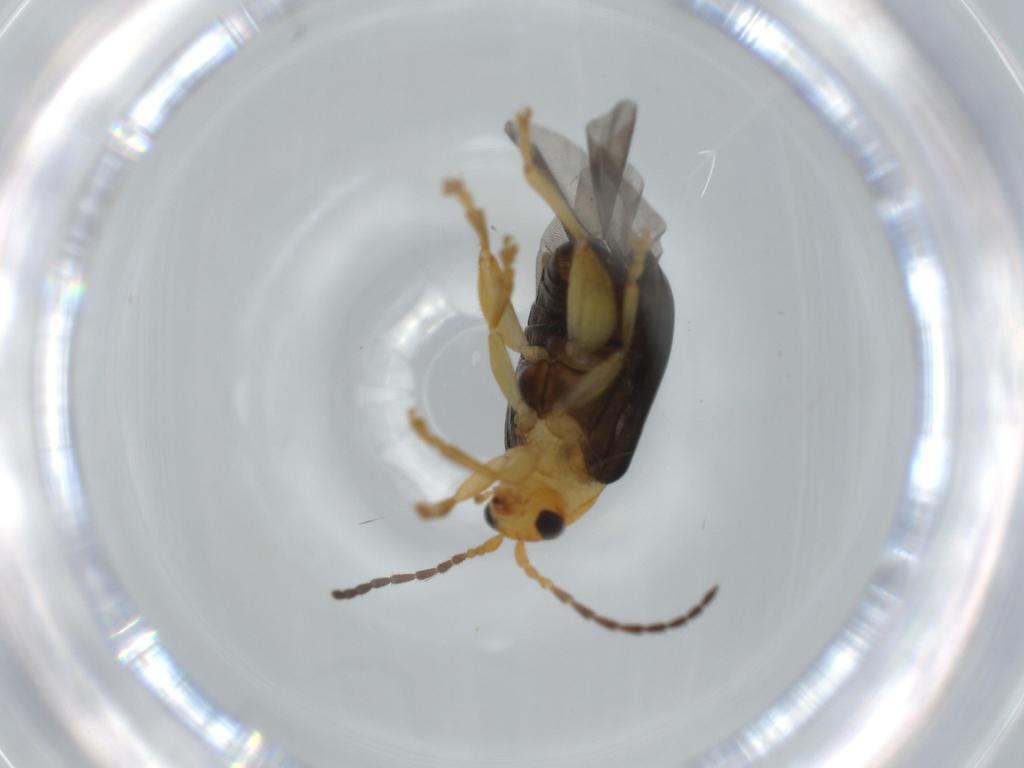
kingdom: Animalia
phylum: Arthropoda
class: Insecta
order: Coleoptera
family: Chrysomelidae
